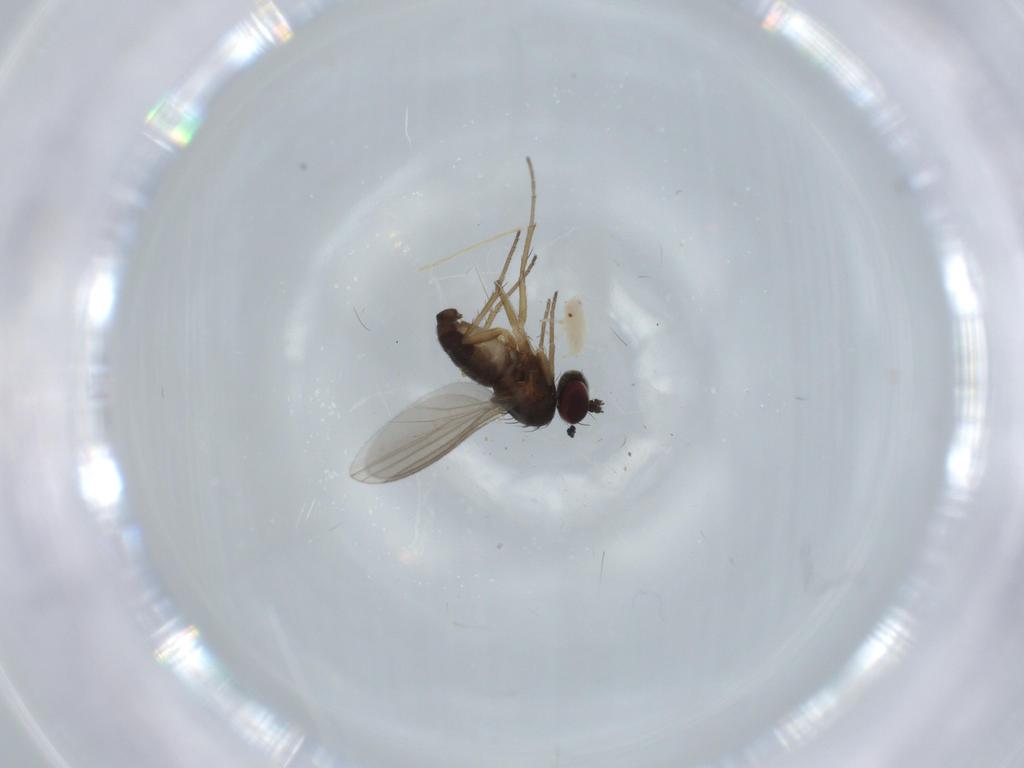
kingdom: Animalia
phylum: Arthropoda
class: Insecta
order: Diptera
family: Dolichopodidae
